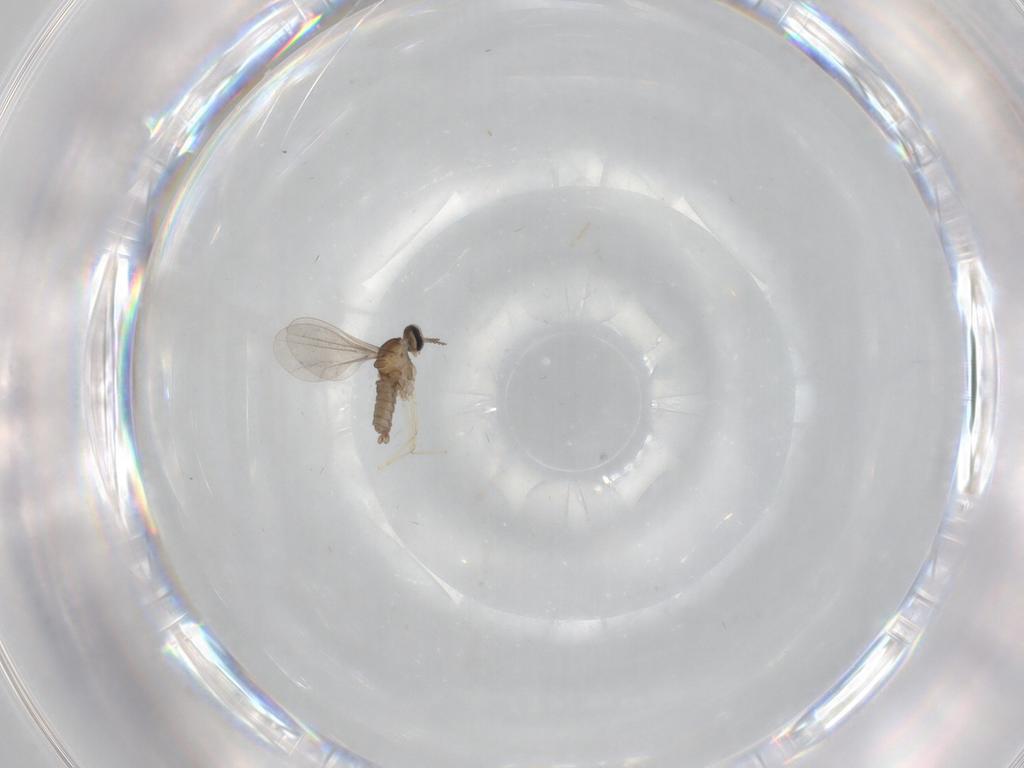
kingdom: Animalia
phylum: Arthropoda
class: Insecta
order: Diptera
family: Cecidomyiidae
